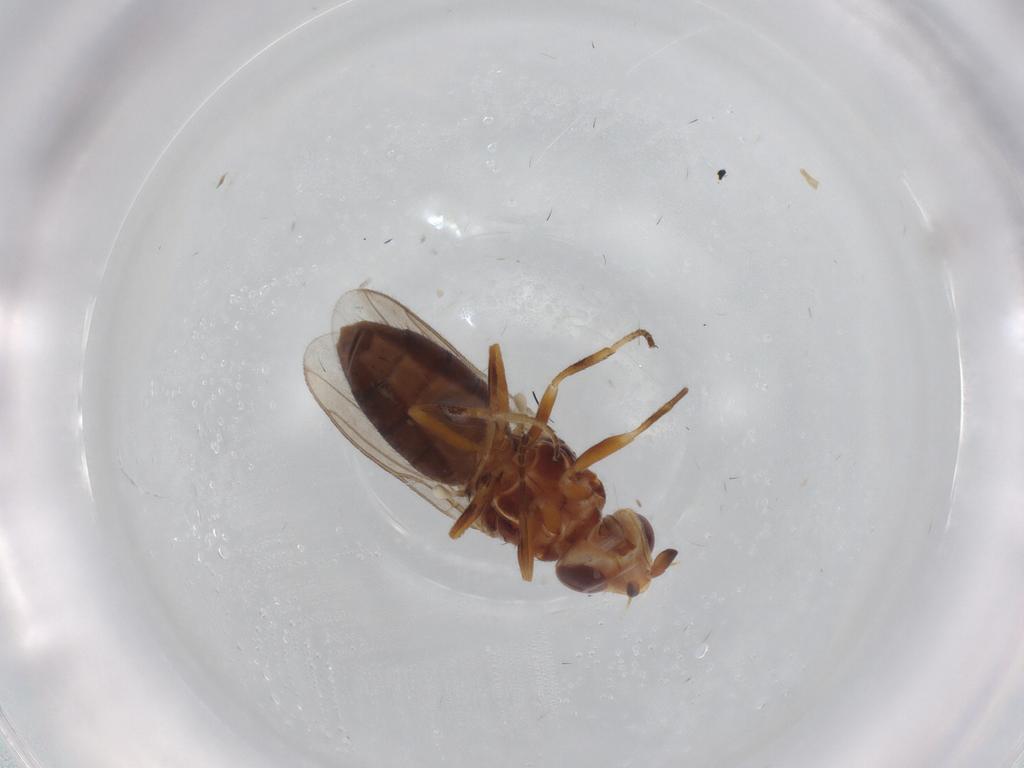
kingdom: Animalia
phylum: Arthropoda
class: Insecta
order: Diptera
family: Chloropidae
